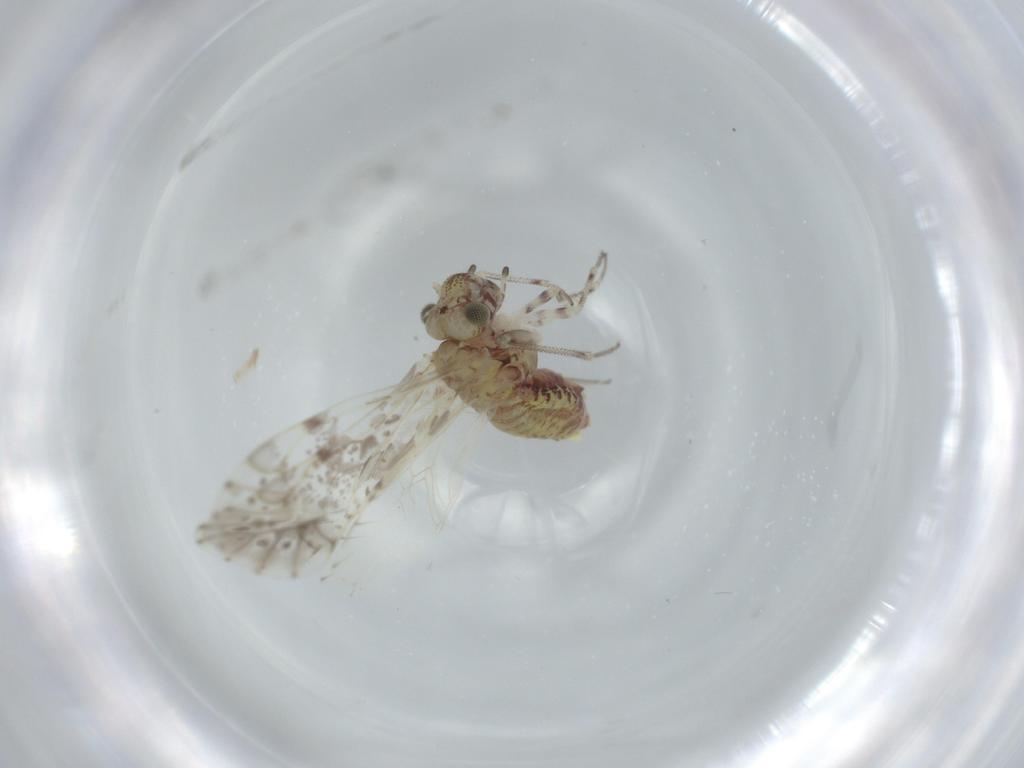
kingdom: Animalia
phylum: Arthropoda
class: Insecta
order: Psocodea
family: Psocidae
